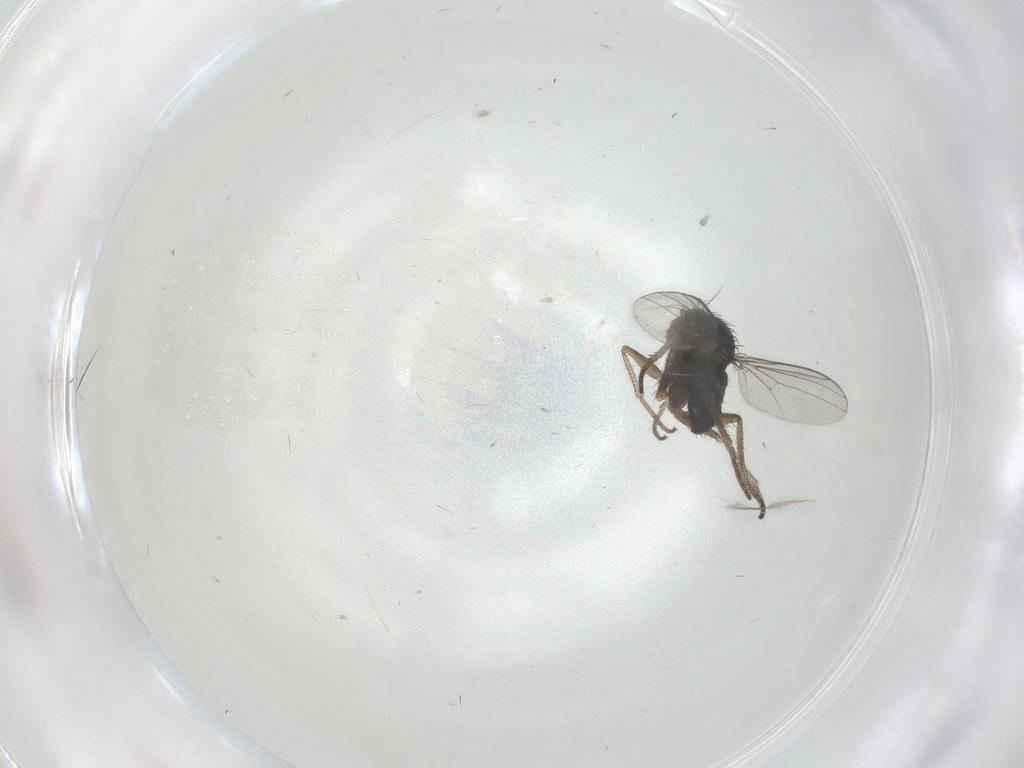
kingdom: Animalia
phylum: Arthropoda
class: Insecta
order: Diptera
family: Dolichopodidae
